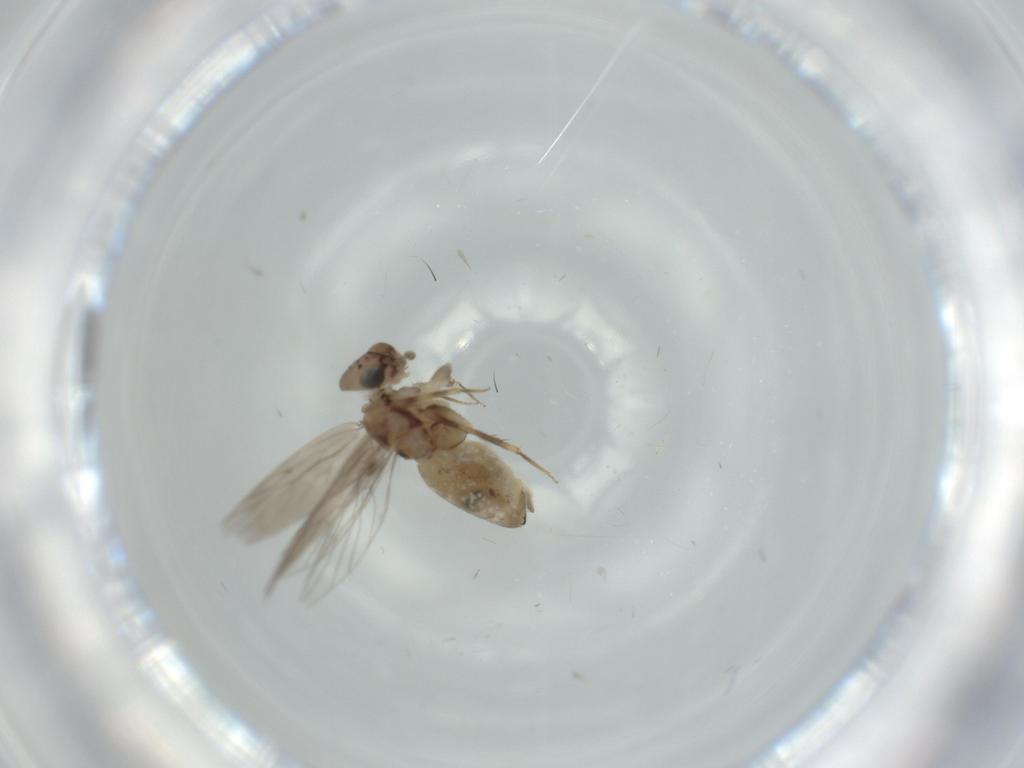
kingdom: Animalia
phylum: Arthropoda
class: Insecta
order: Psocodea
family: Lepidopsocidae
